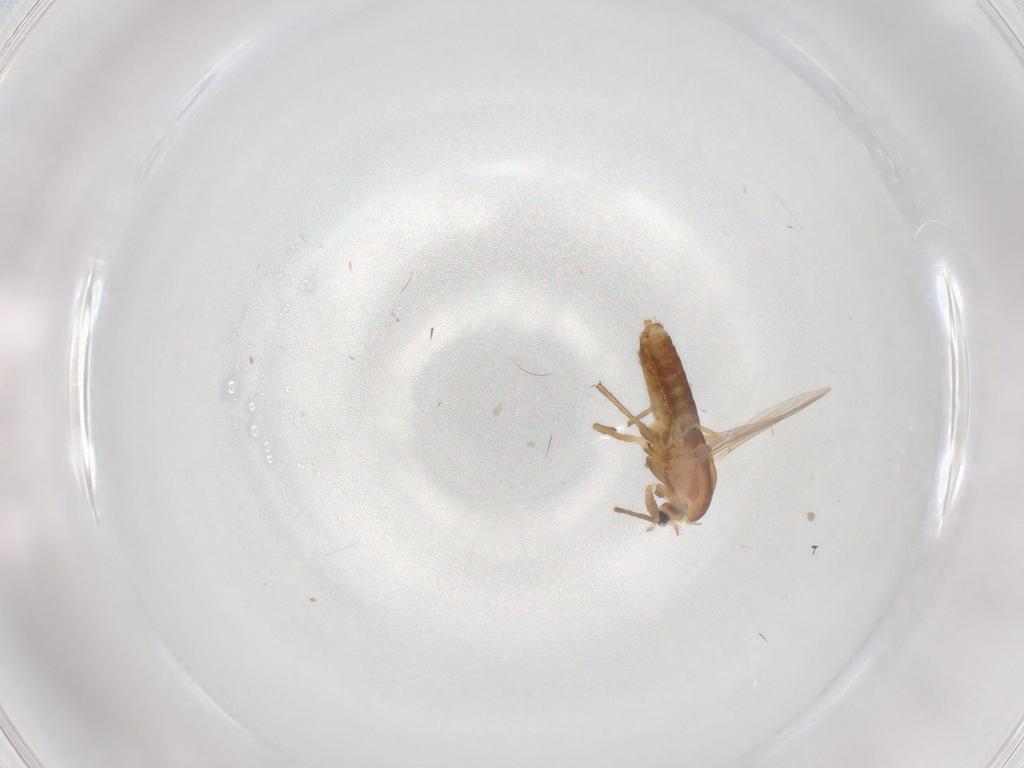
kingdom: Animalia
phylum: Arthropoda
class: Insecta
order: Diptera
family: Chironomidae
